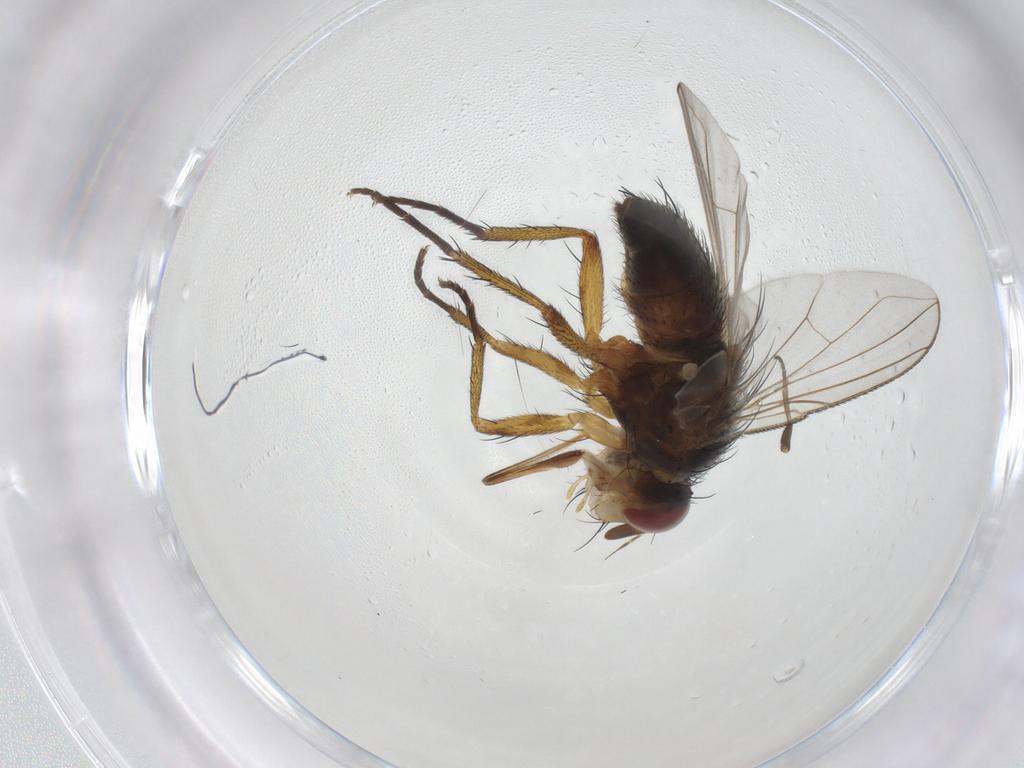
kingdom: Animalia
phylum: Arthropoda
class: Insecta
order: Diptera
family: Tachinidae
